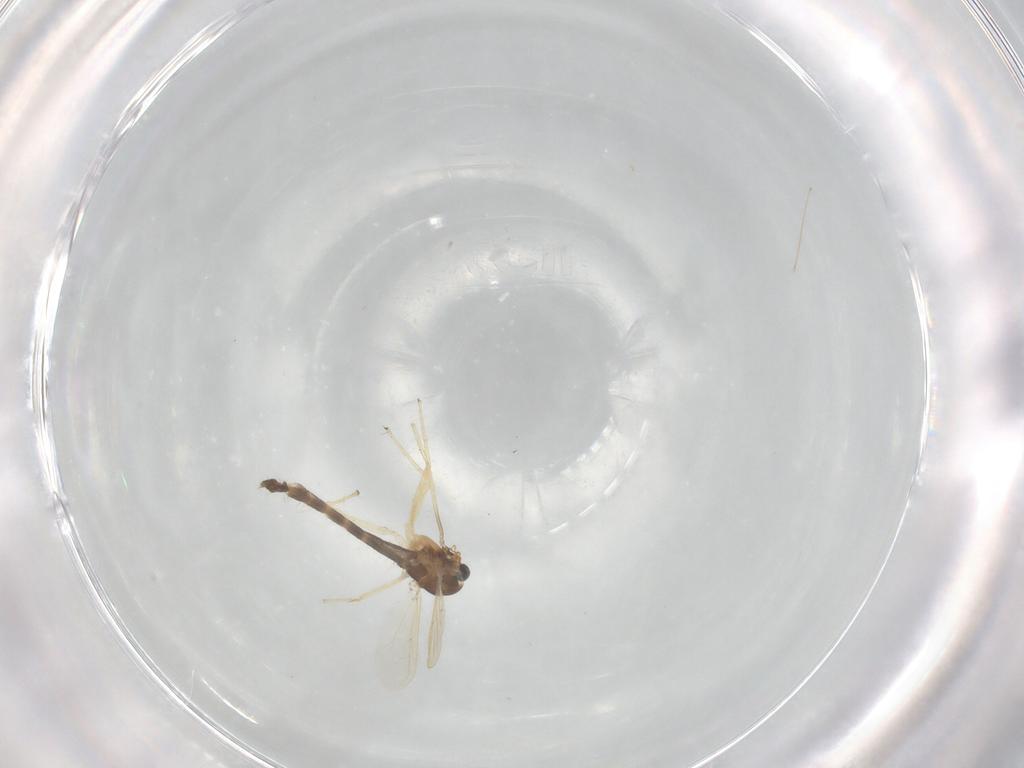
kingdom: Animalia
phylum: Arthropoda
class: Insecta
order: Diptera
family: Chironomidae
